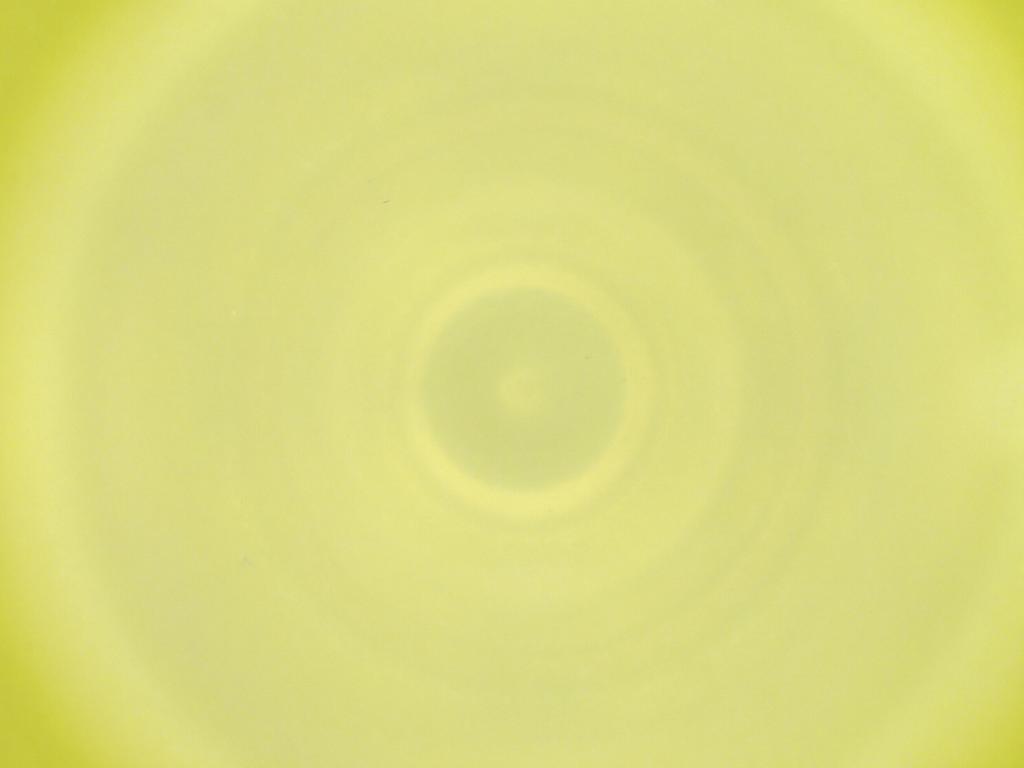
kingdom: Animalia
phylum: Arthropoda
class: Insecta
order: Diptera
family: Cecidomyiidae
